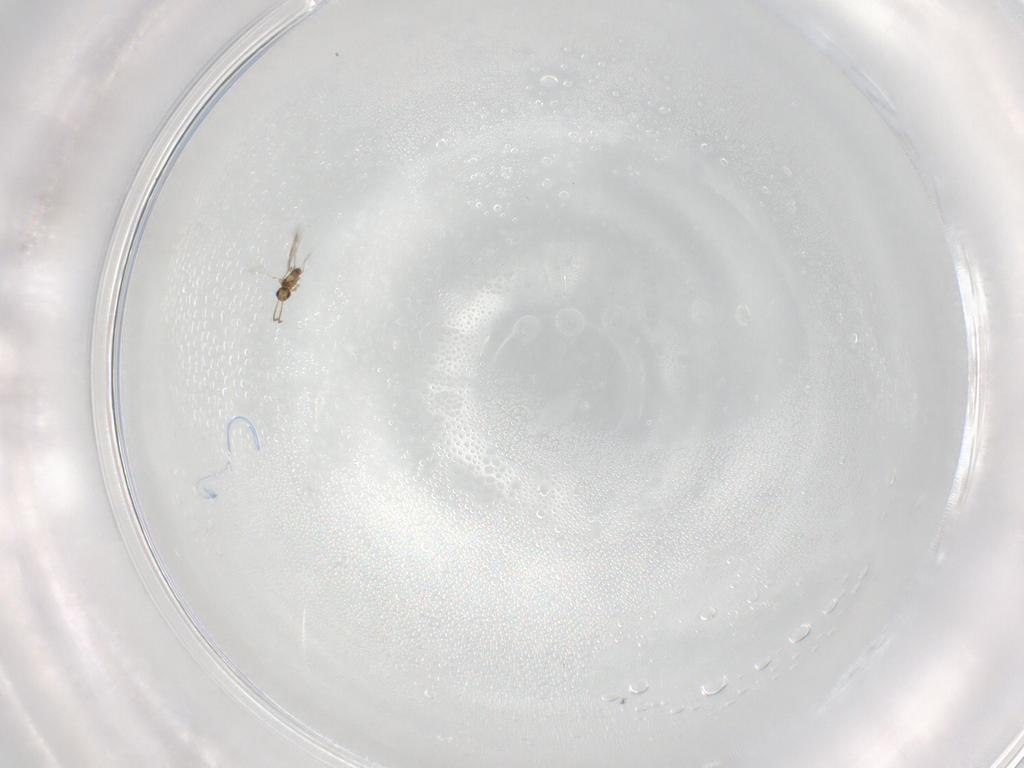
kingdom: Animalia
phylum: Arthropoda
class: Insecta
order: Hymenoptera
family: Mymaridae
